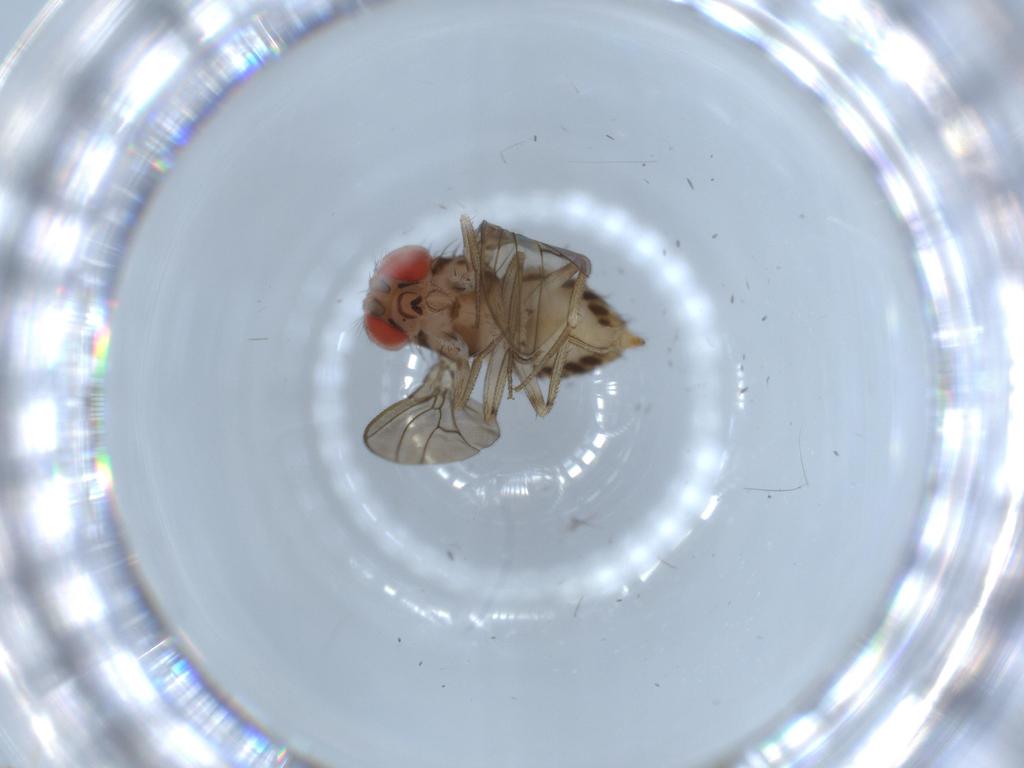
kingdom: Animalia
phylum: Arthropoda
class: Insecta
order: Diptera
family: Drosophilidae
